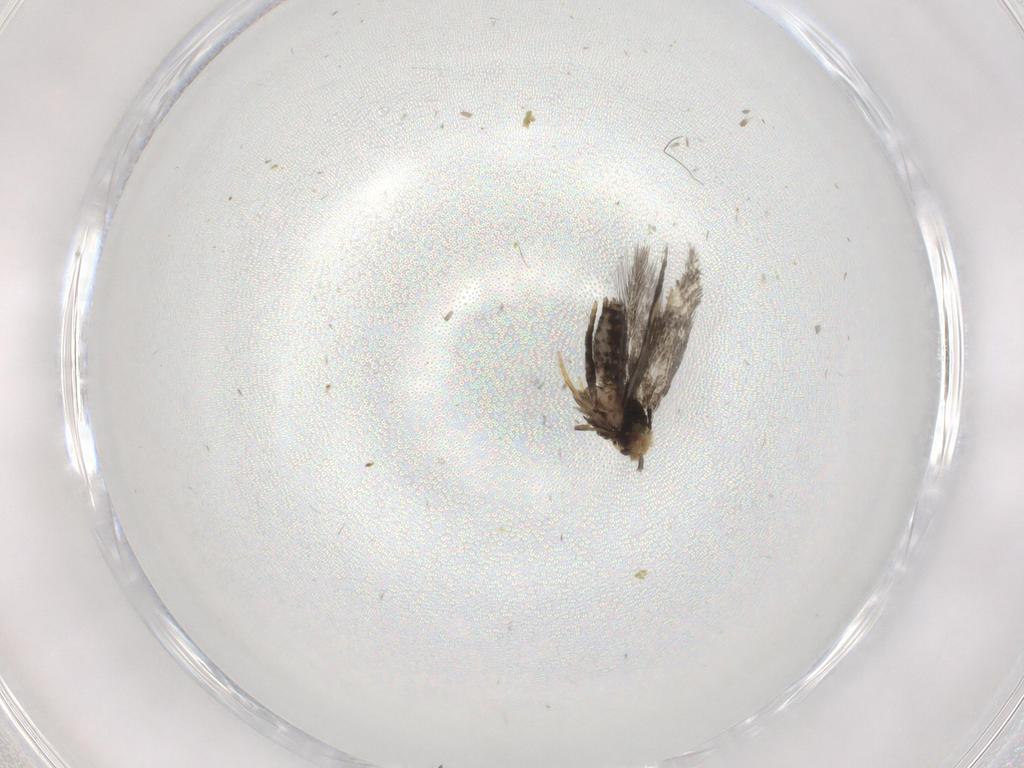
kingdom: Animalia
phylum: Arthropoda
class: Insecta
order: Lepidoptera
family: Nepticulidae
